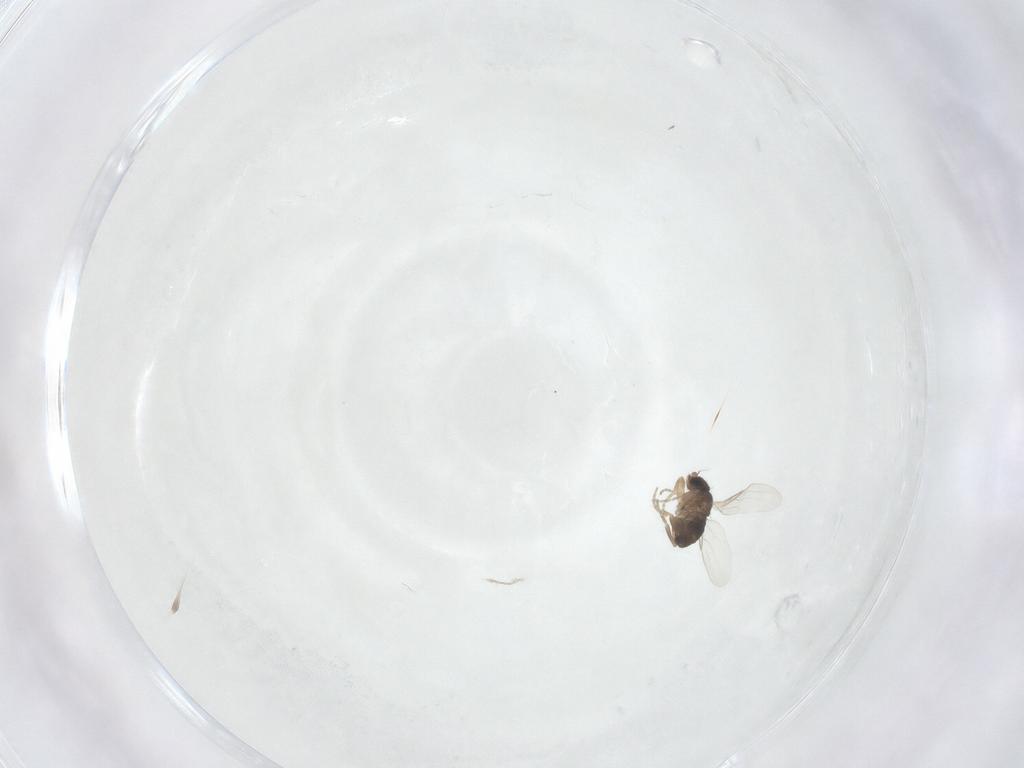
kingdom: Animalia
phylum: Arthropoda
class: Insecta
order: Diptera
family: Phoridae
